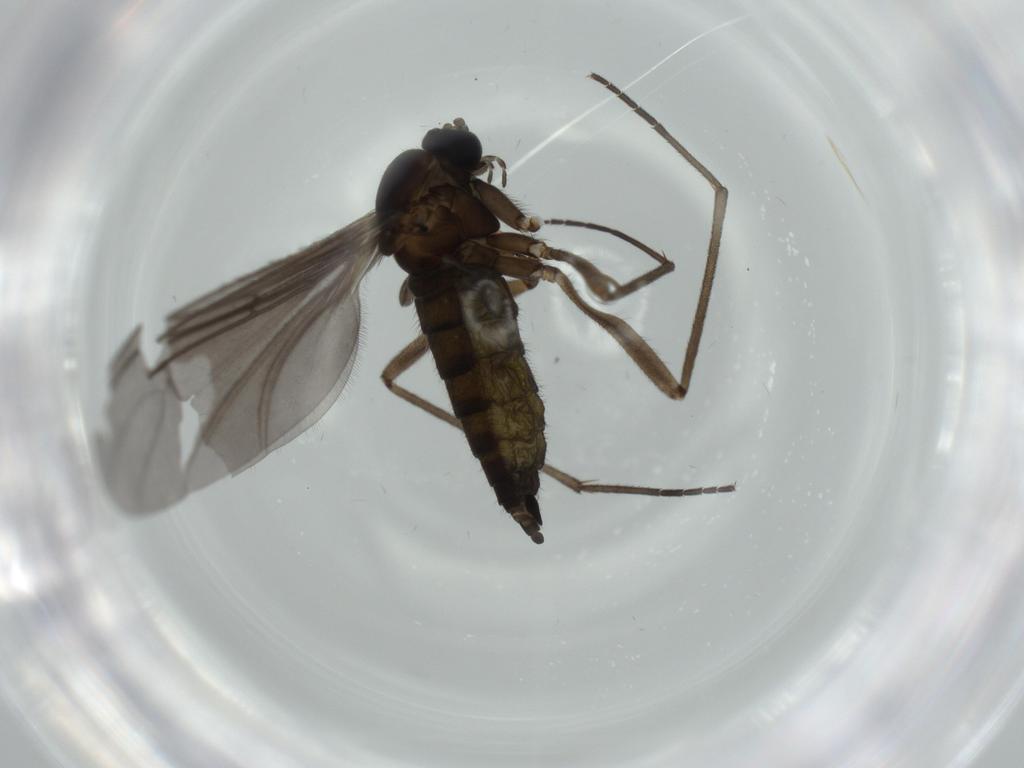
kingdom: Animalia
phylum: Arthropoda
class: Insecta
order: Diptera
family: Sciaridae
